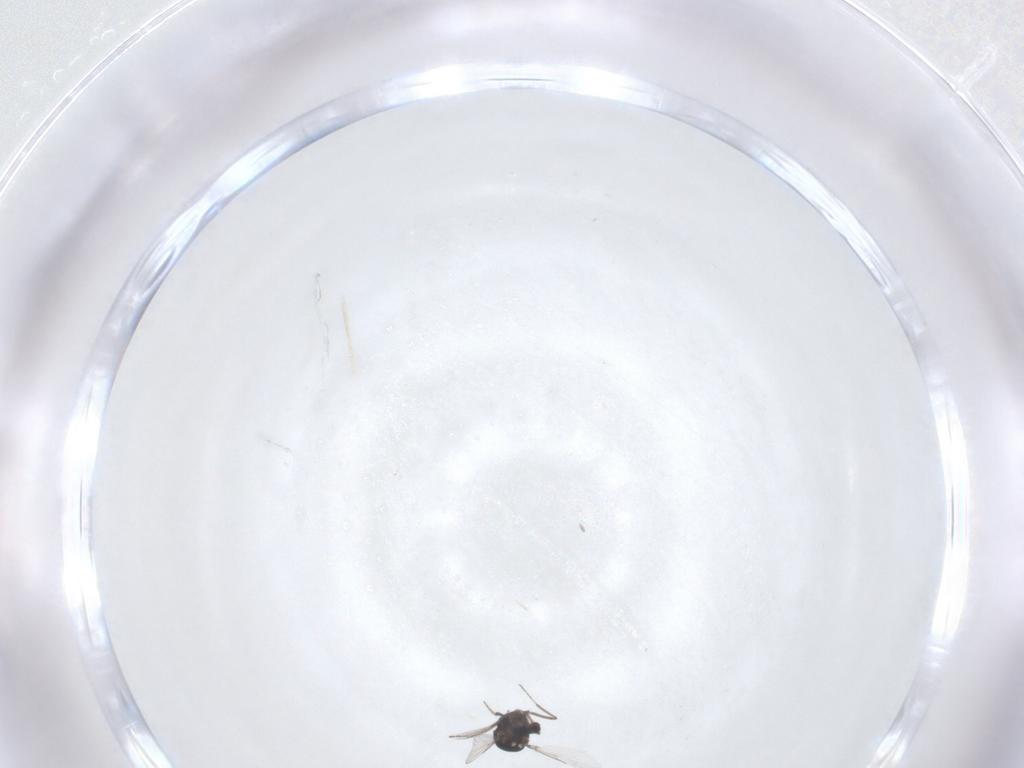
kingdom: Animalia
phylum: Arthropoda
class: Insecta
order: Diptera
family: Ceratopogonidae
